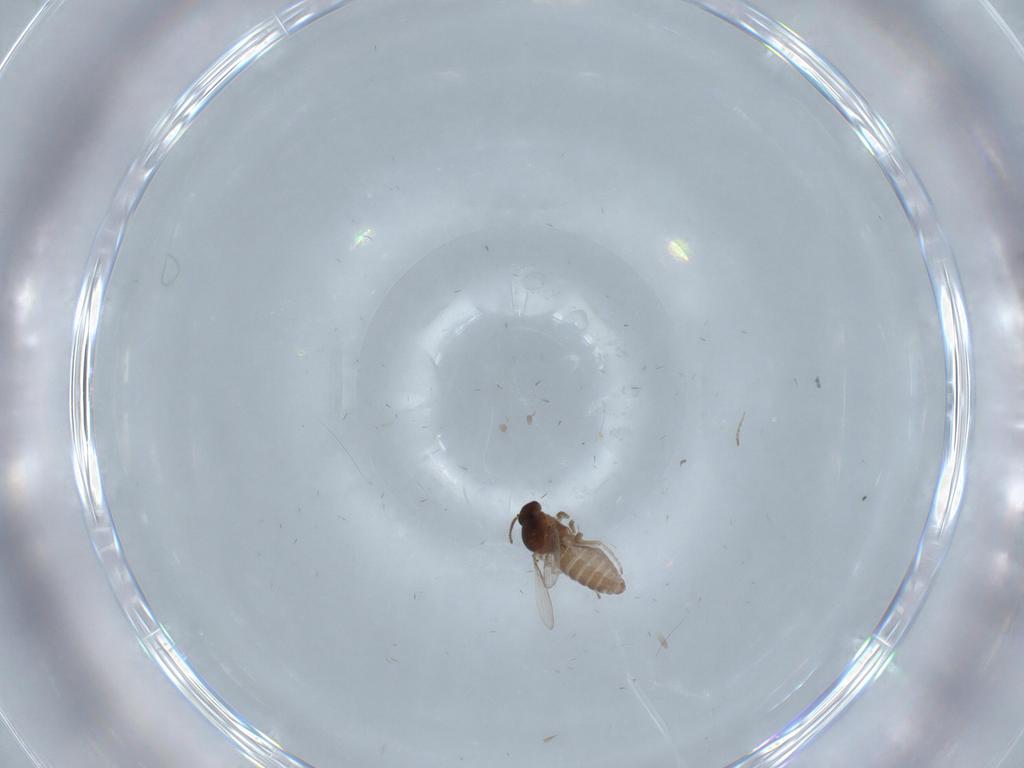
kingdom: Animalia
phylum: Arthropoda
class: Insecta
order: Diptera
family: Ceratopogonidae
